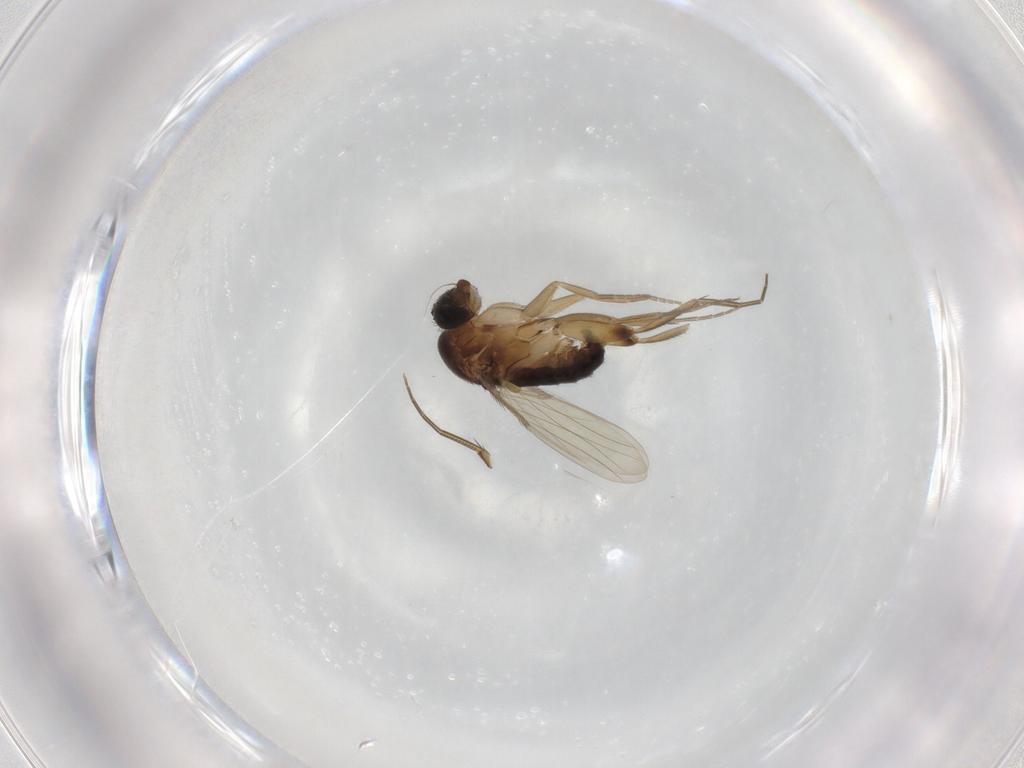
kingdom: Animalia
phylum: Arthropoda
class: Insecta
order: Diptera
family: Phoridae
